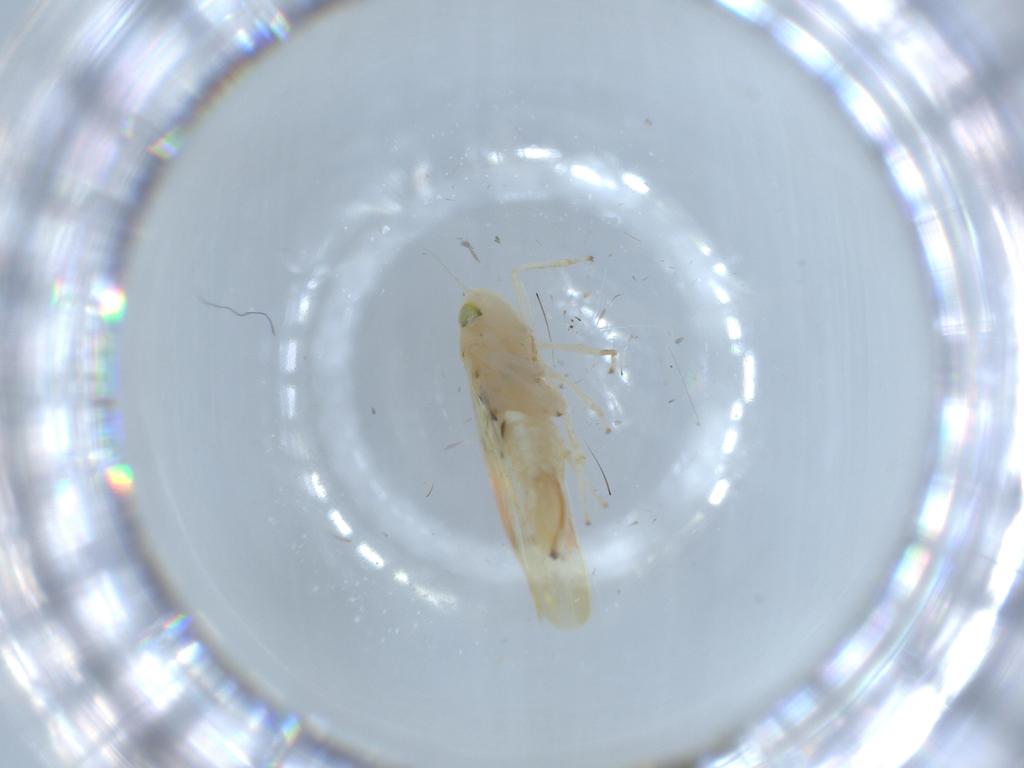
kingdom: Animalia
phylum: Arthropoda
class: Insecta
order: Hemiptera
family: Cicadellidae
